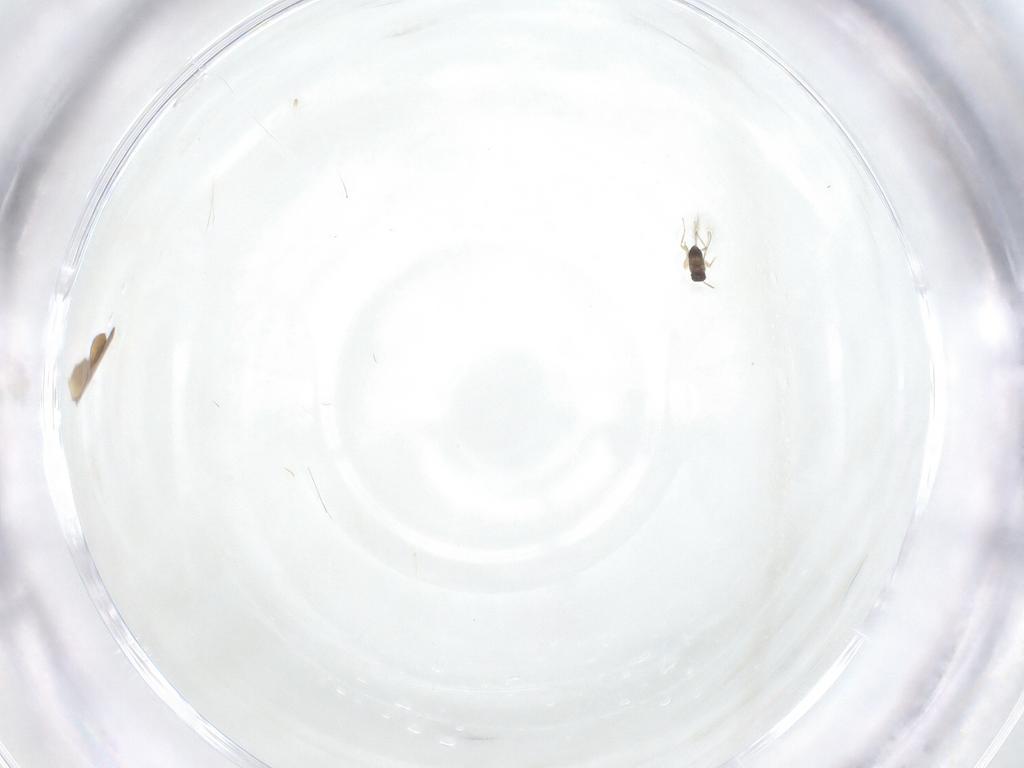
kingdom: Animalia
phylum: Arthropoda
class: Insecta
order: Hymenoptera
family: Mymaridae
